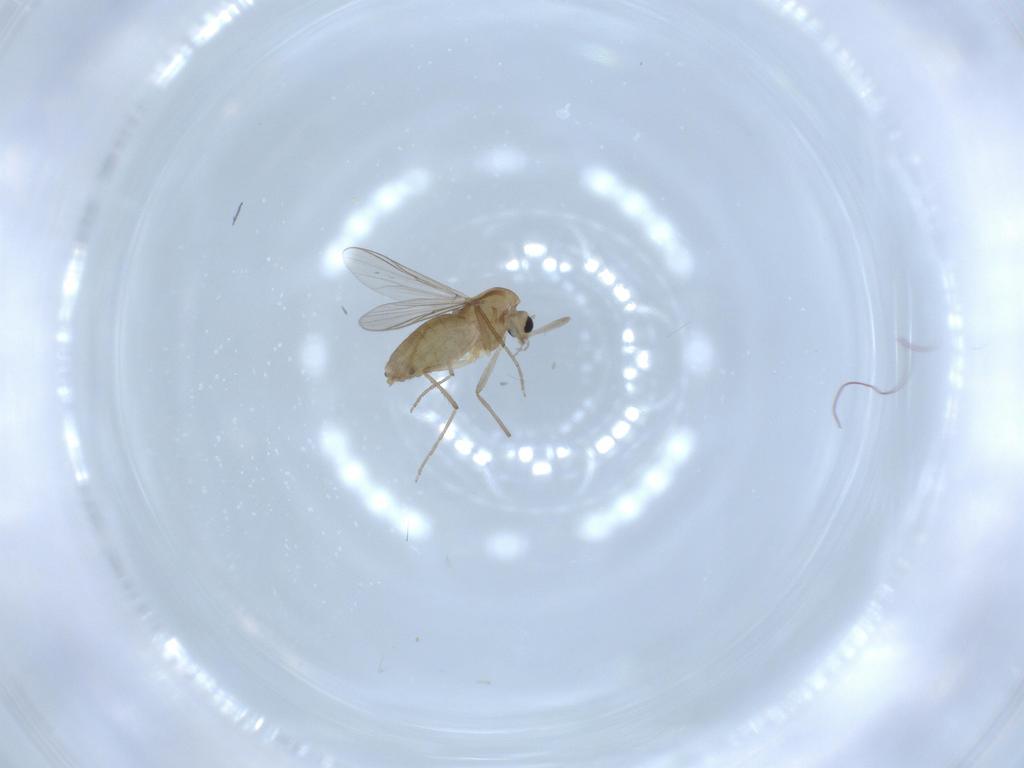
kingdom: Animalia
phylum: Arthropoda
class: Insecta
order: Diptera
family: Chironomidae
